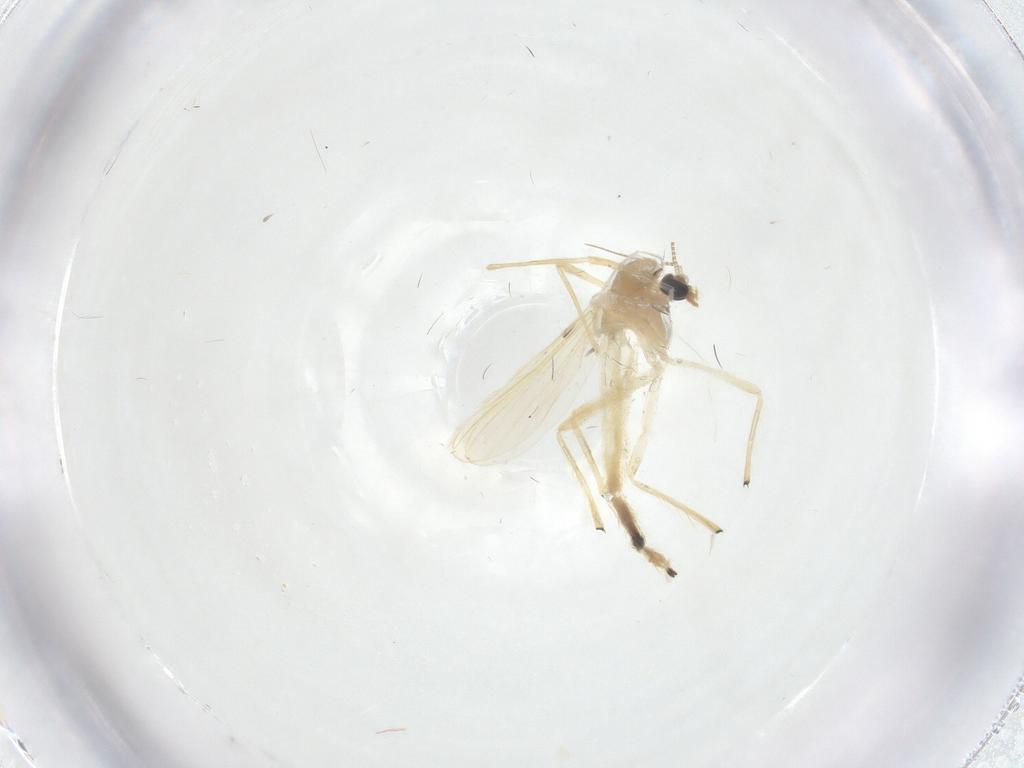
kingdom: Animalia
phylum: Arthropoda
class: Insecta
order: Diptera
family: Chironomidae
